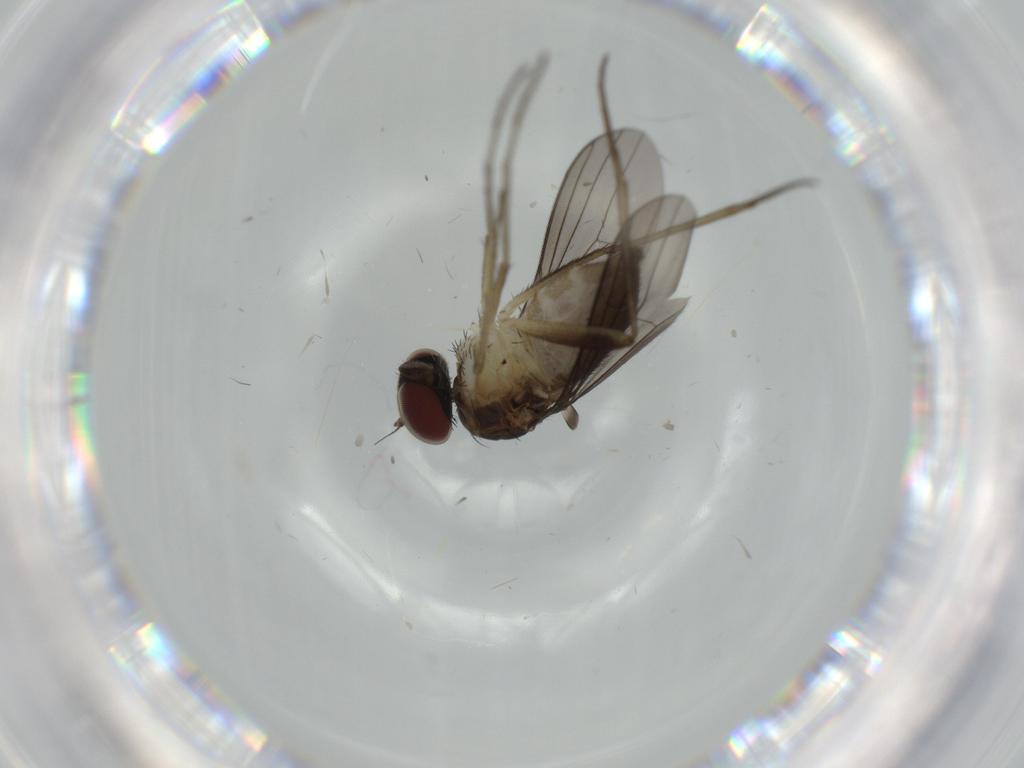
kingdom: Animalia
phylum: Arthropoda
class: Insecta
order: Diptera
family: Dolichopodidae
